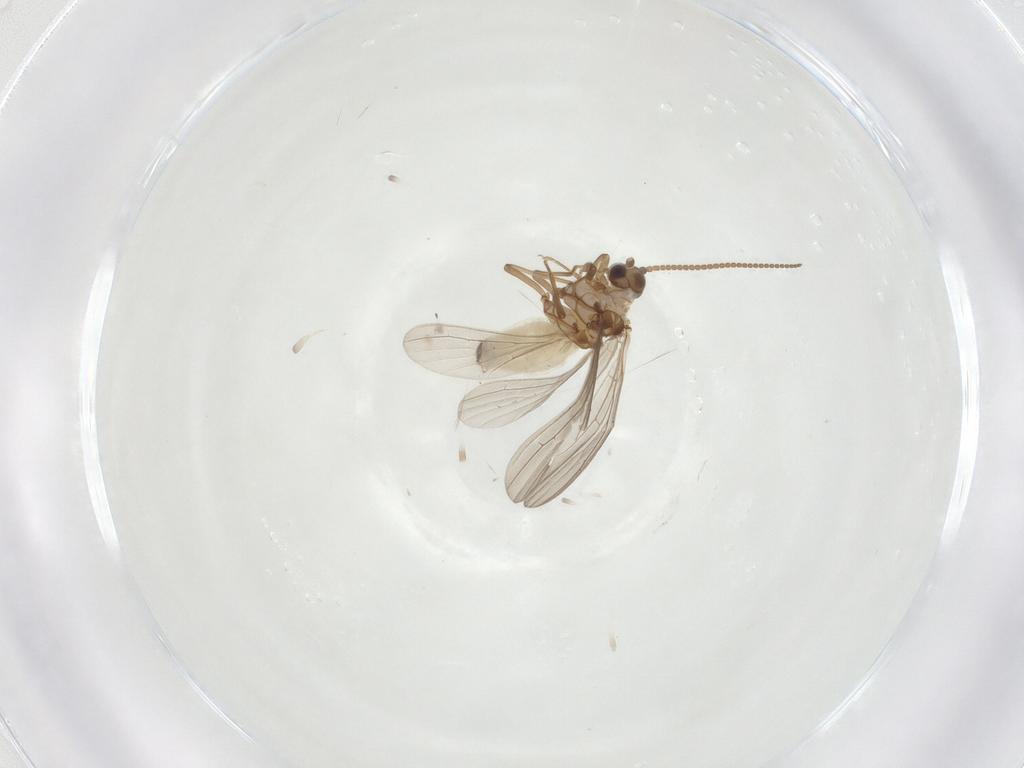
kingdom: Animalia
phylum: Arthropoda
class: Insecta
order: Neuroptera
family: Coniopterygidae
